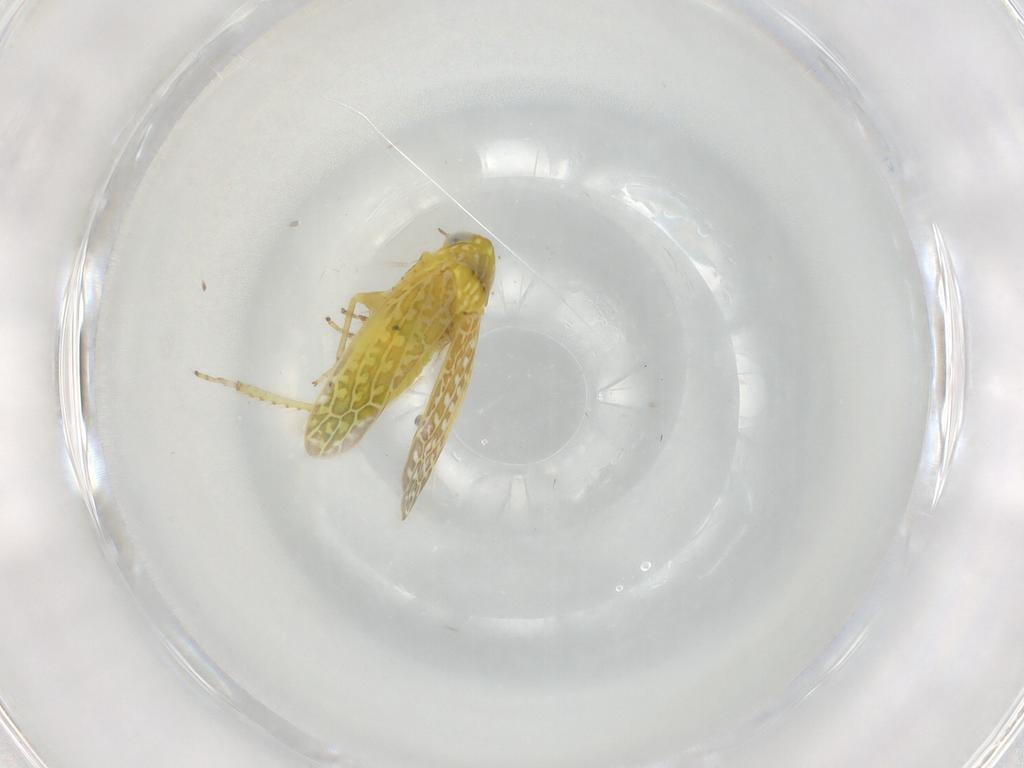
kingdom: Animalia
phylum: Arthropoda
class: Insecta
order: Hemiptera
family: Cicadellidae
